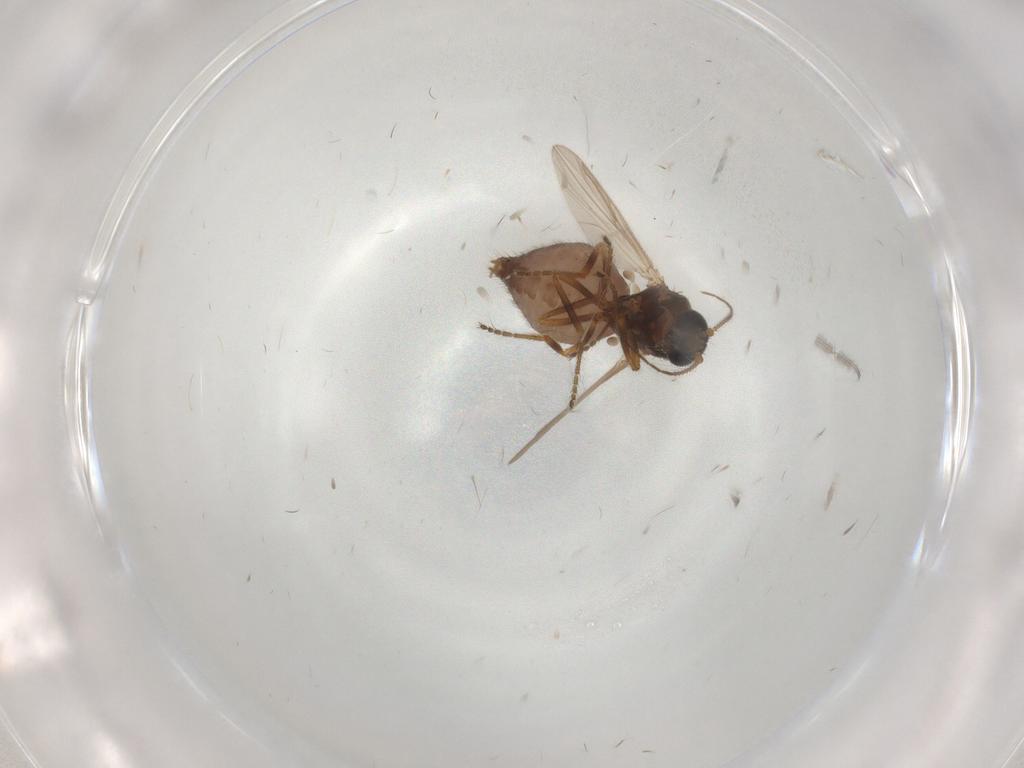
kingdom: Animalia
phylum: Arthropoda
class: Insecta
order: Diptera
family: Ceratopogonidae
